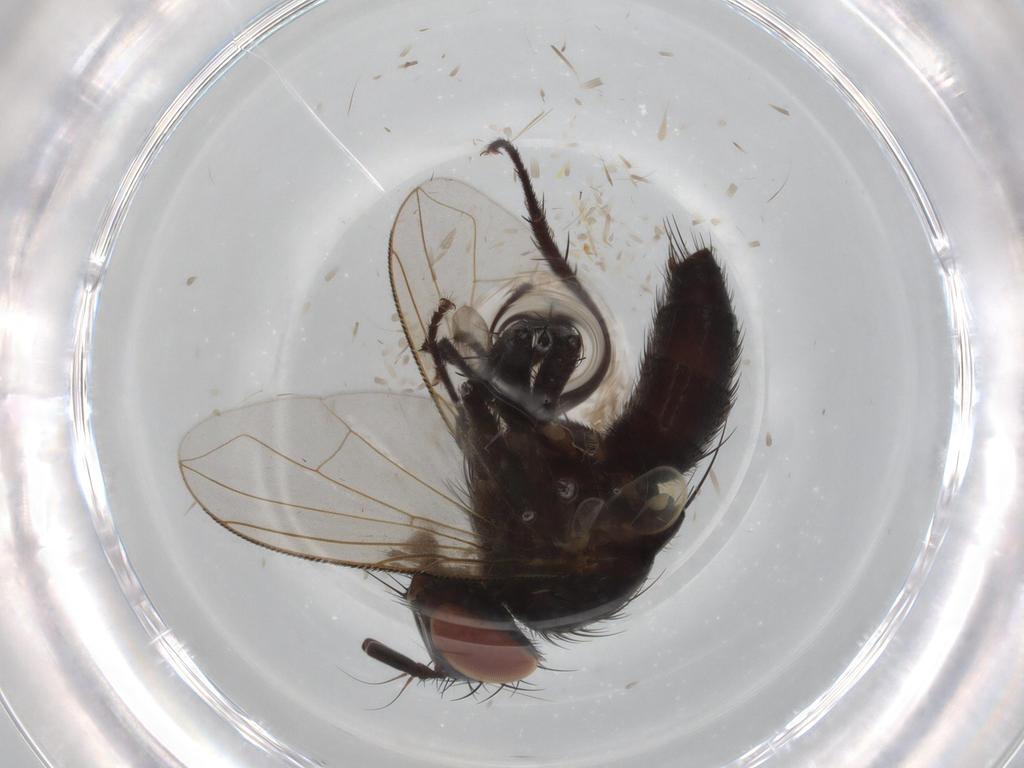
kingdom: Animalia
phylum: Arthropoda
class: Insecta
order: Diptera
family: Tachinidae
